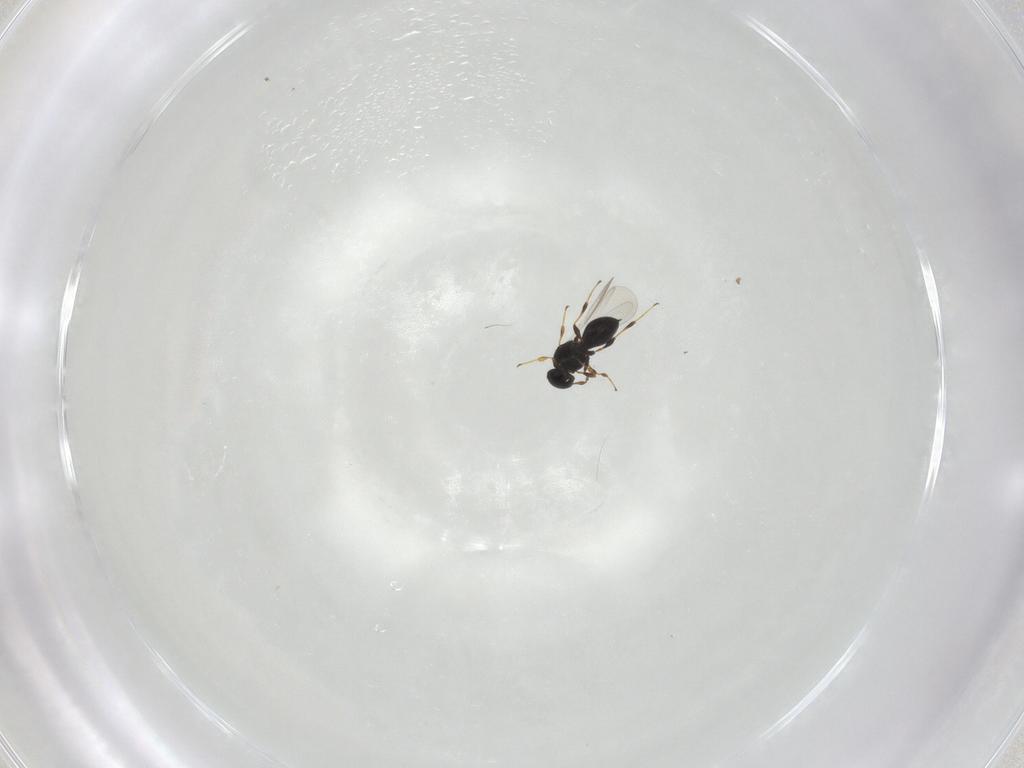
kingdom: Animalia
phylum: Arthropoda
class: Insecta
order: Hymenoptera
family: Platygastridae
